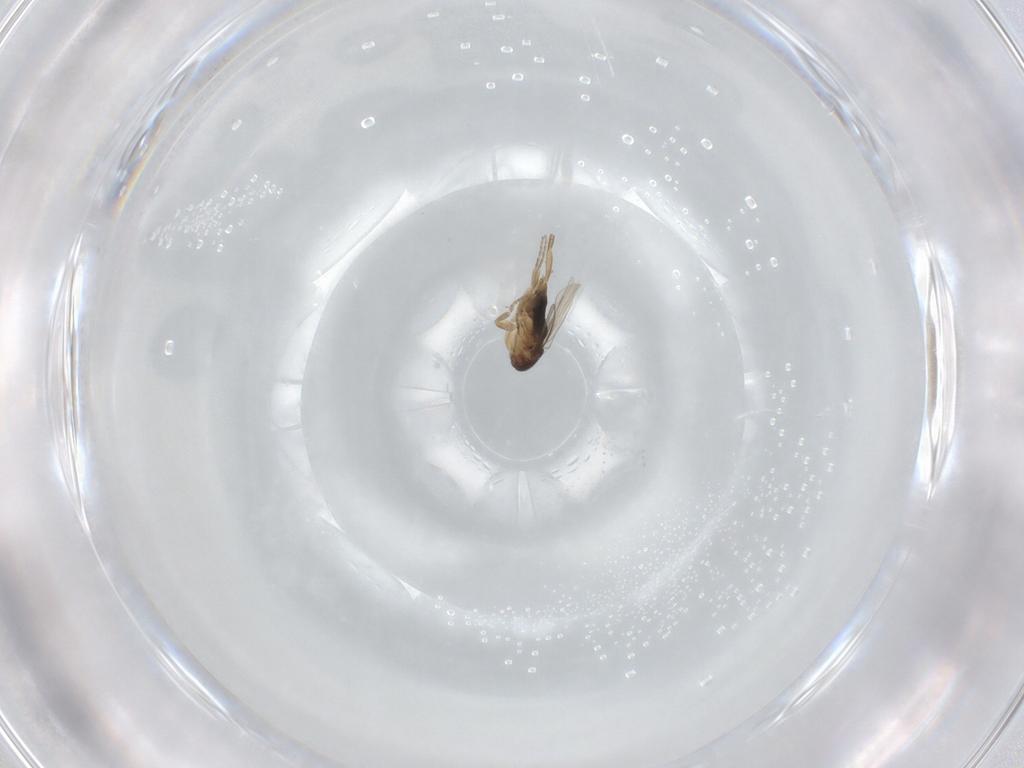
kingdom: Animalia
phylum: Arthropoda
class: Insecta
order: Diptera
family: Phoridae
